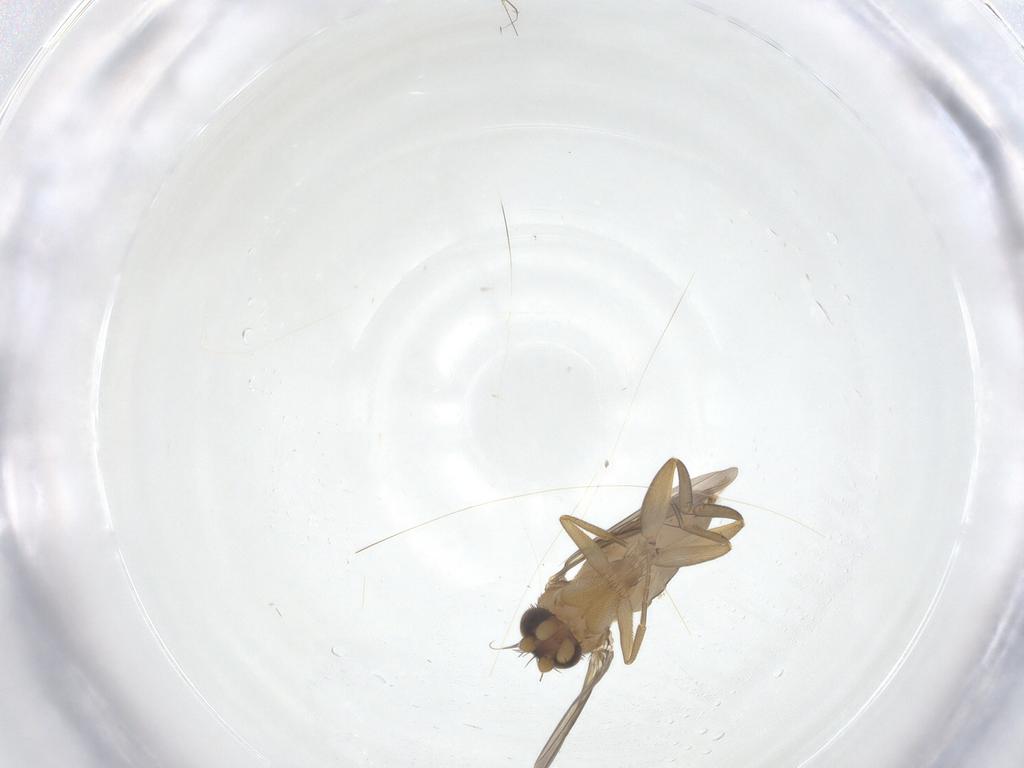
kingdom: Animalia
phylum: Arthropoda
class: Insecta
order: Diptera
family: Phoridae
